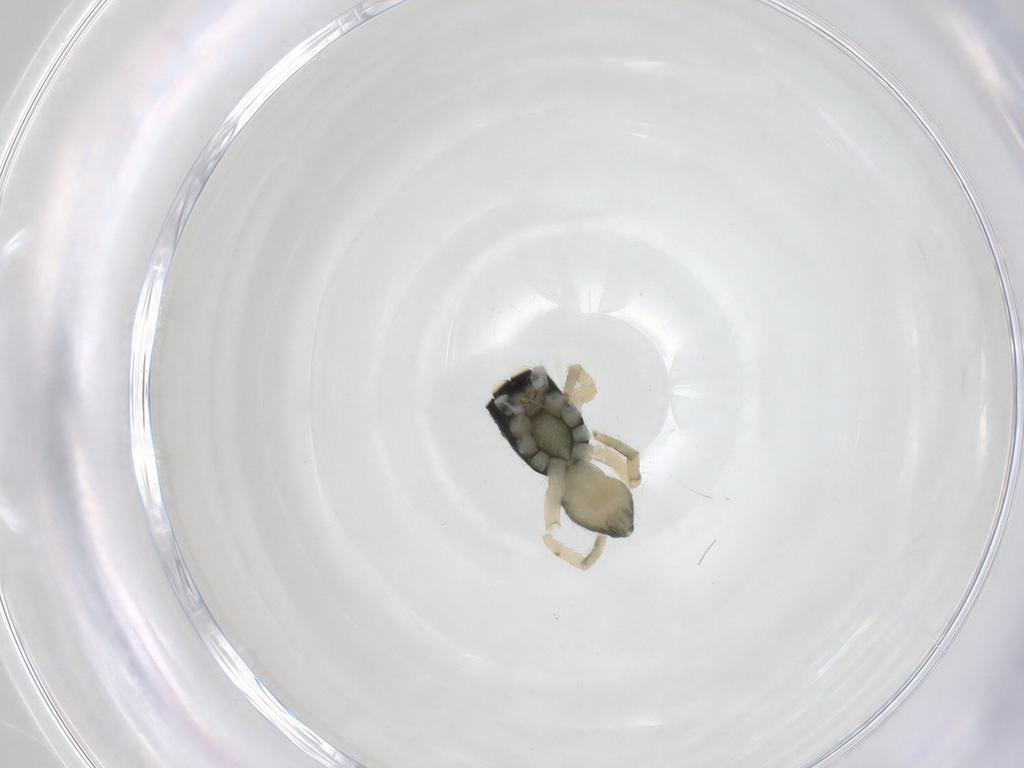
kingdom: Animalia
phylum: Arthropoda
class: Arachnida
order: Araneae
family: Salticidae
